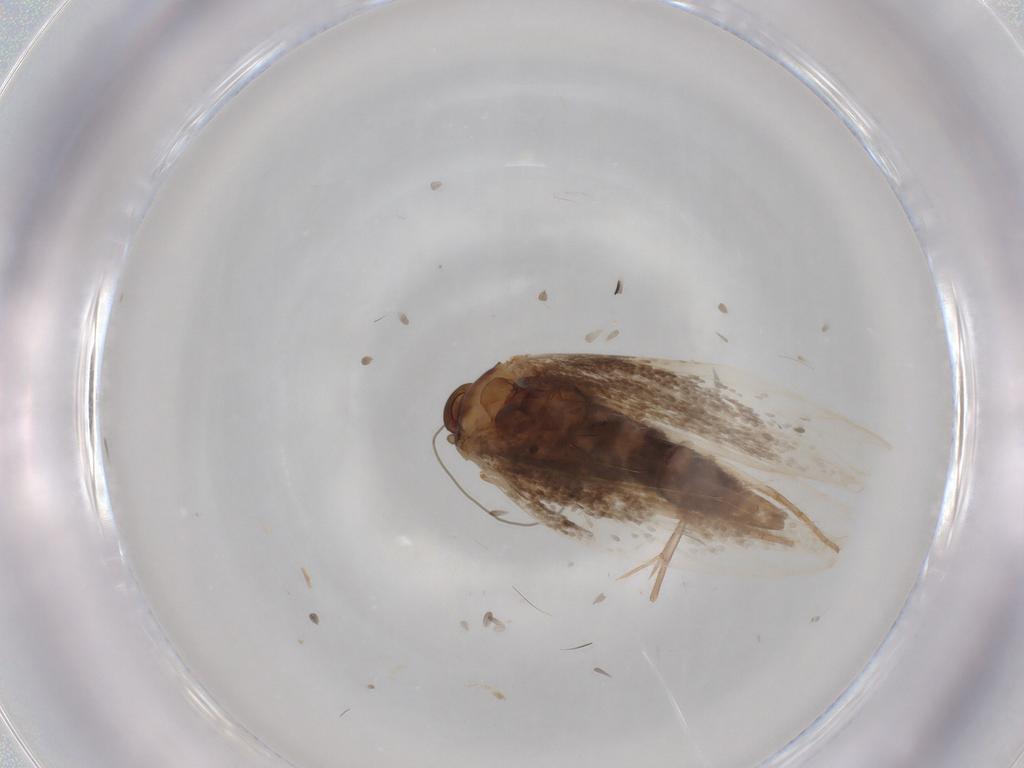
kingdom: Animalia
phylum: Arthropoda
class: Insecta
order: Lepidoptera
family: Elachistidae
